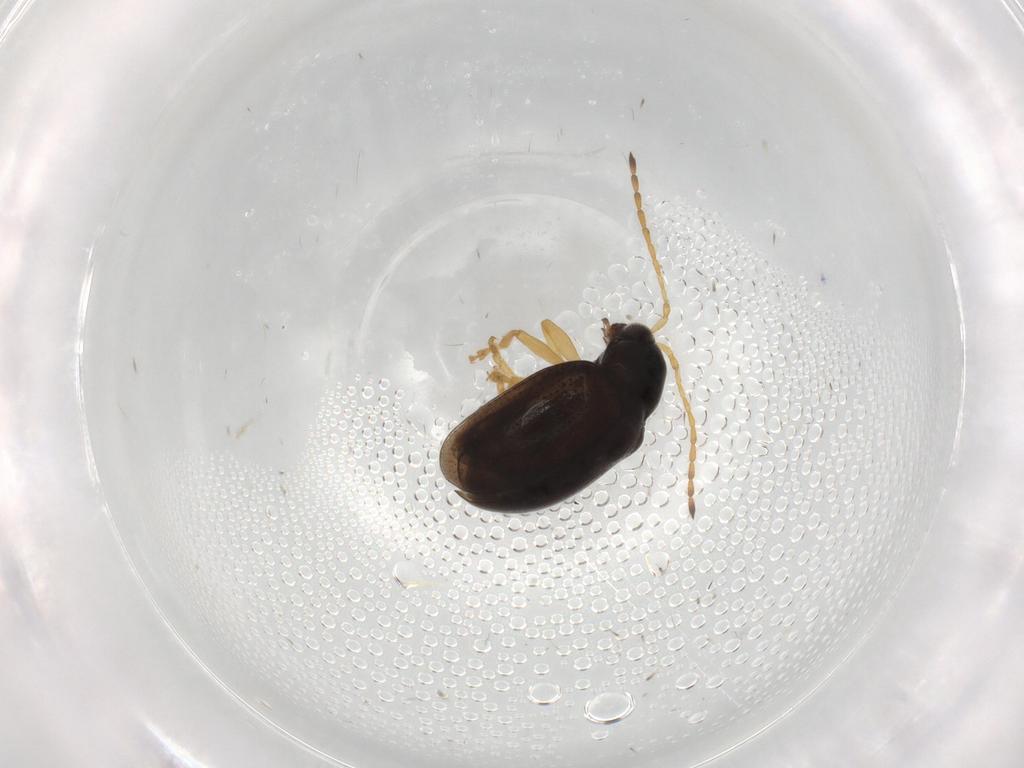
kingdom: Animalia
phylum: Arthropoda
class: Insecta
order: Coleoptera
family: Chrysomelidae
